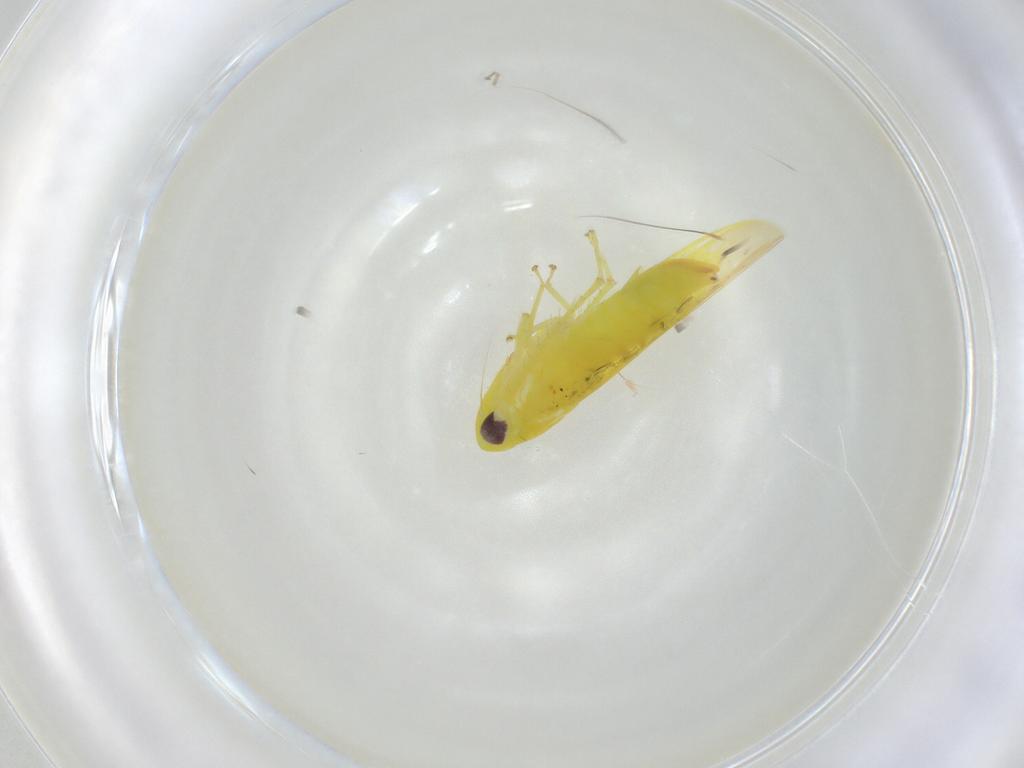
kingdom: Animalia
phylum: Arthropoda
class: Insecta
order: Hemiptera
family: Cicadellidae
